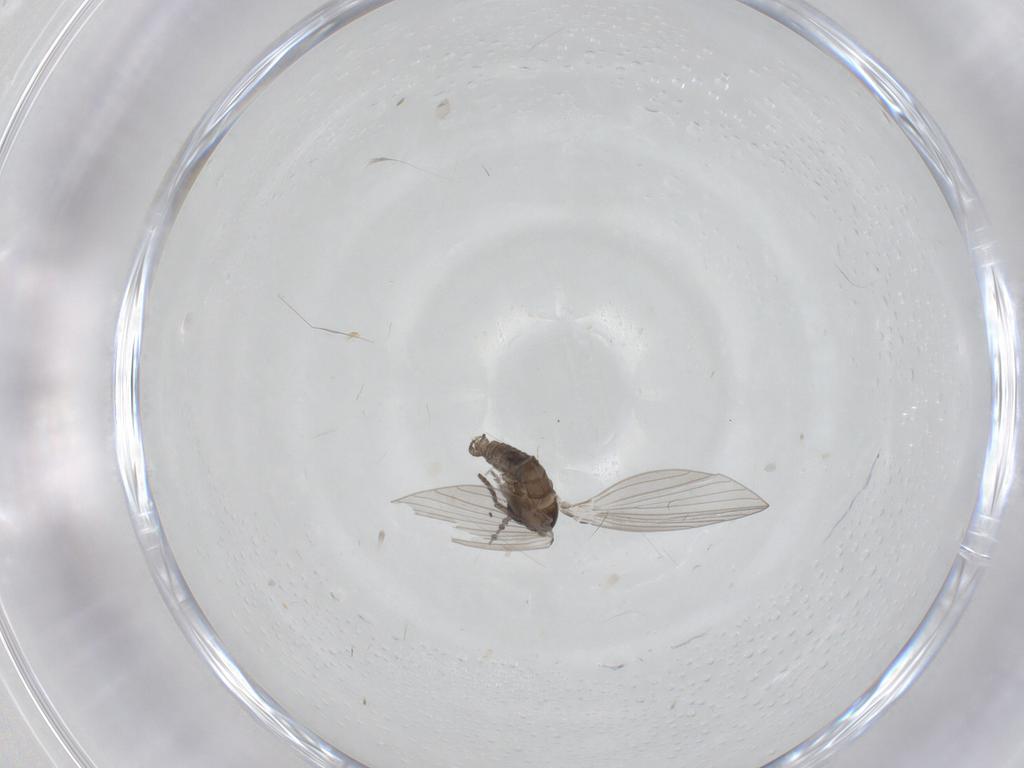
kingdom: Animalia
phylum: Arthropoda
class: Insecta
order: Diptera
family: Psychodidae
